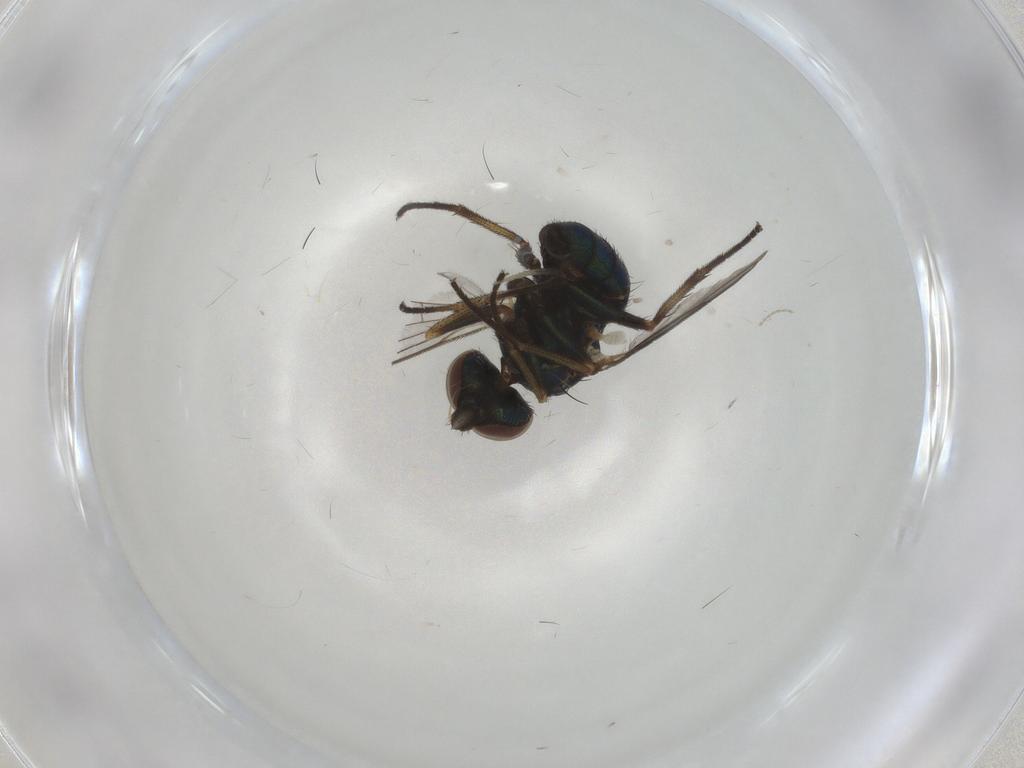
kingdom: Animalia
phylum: Arthropoda
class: Insecta
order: Diptera
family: Dolichopodidae
